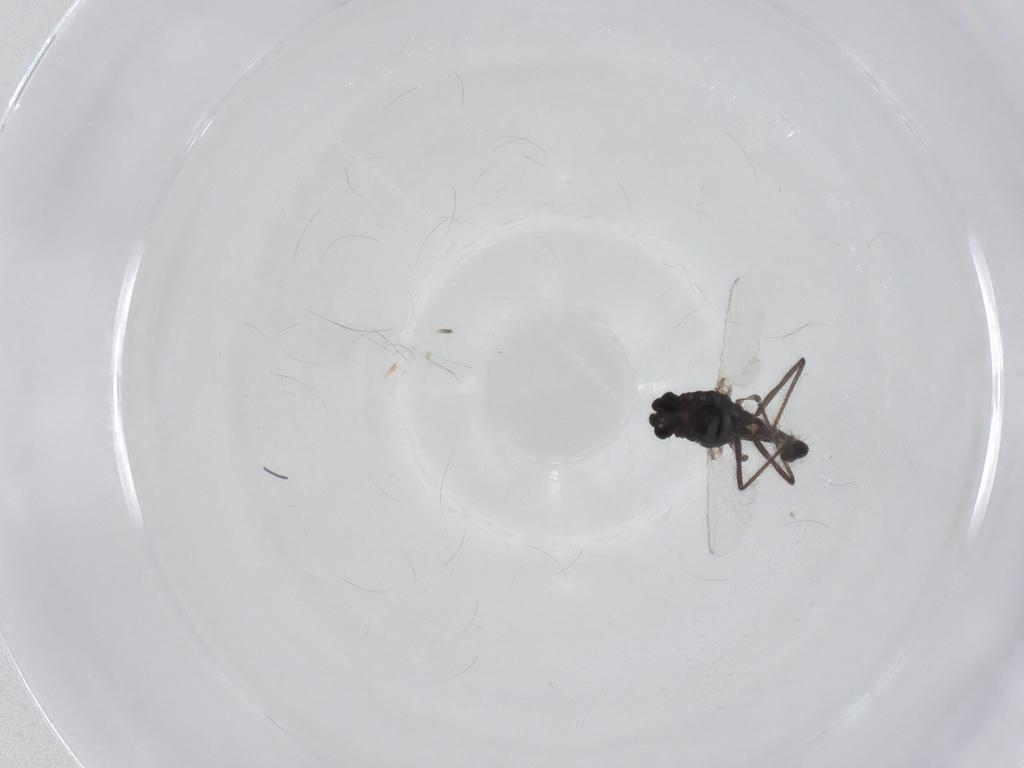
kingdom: Animalia
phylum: Arthropoda
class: Insecta
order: Diptera
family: Chironomidae
